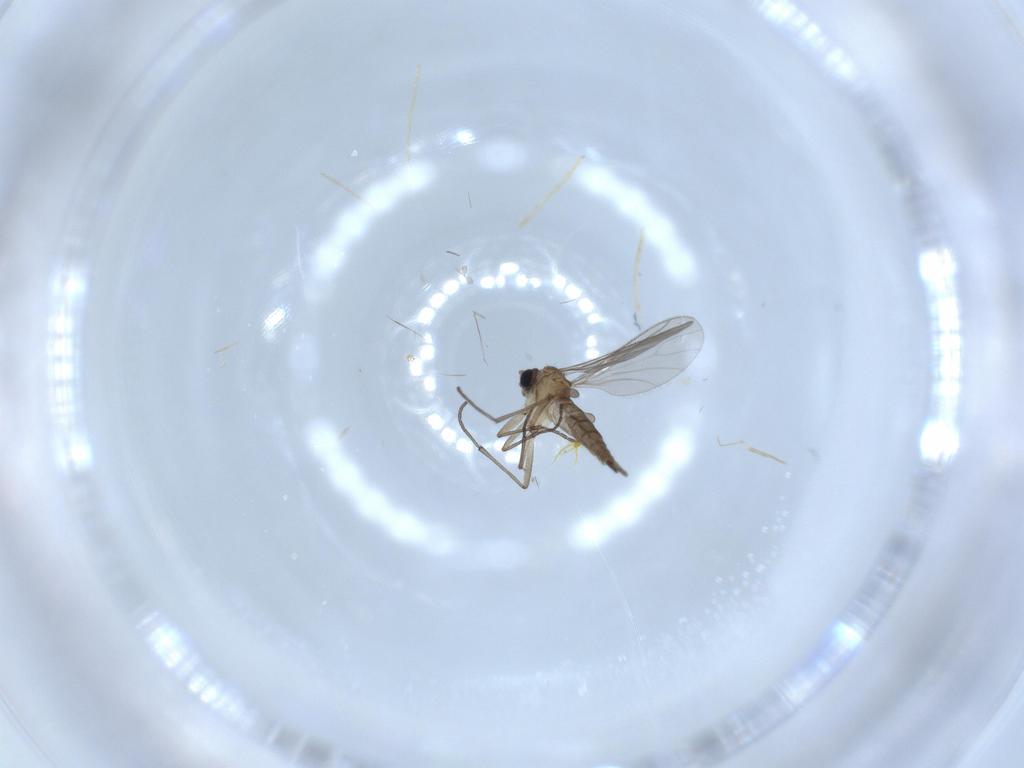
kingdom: Animalia
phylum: Arthropoda
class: Insecta
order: Diptera
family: Sciaridae
